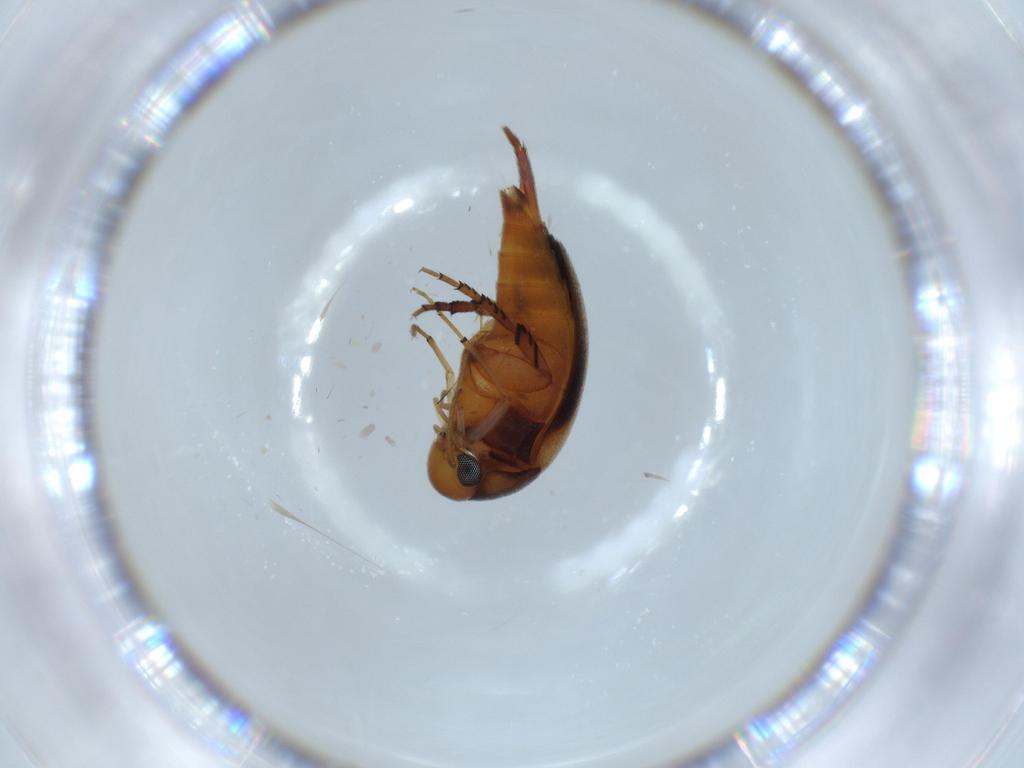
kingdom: Animalia
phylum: Arthropoda
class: Insecta
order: Coleoptera
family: Mordellidae
